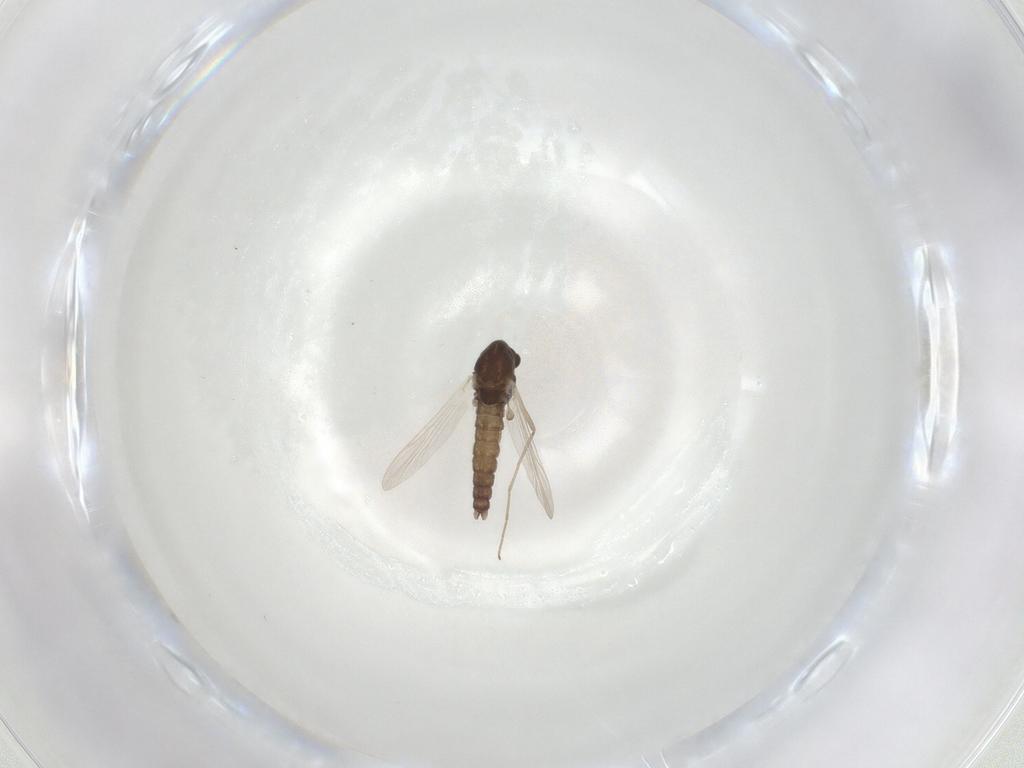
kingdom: Animalia
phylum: Arthropoda
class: Insecta
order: Diptera
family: Chironomidae
